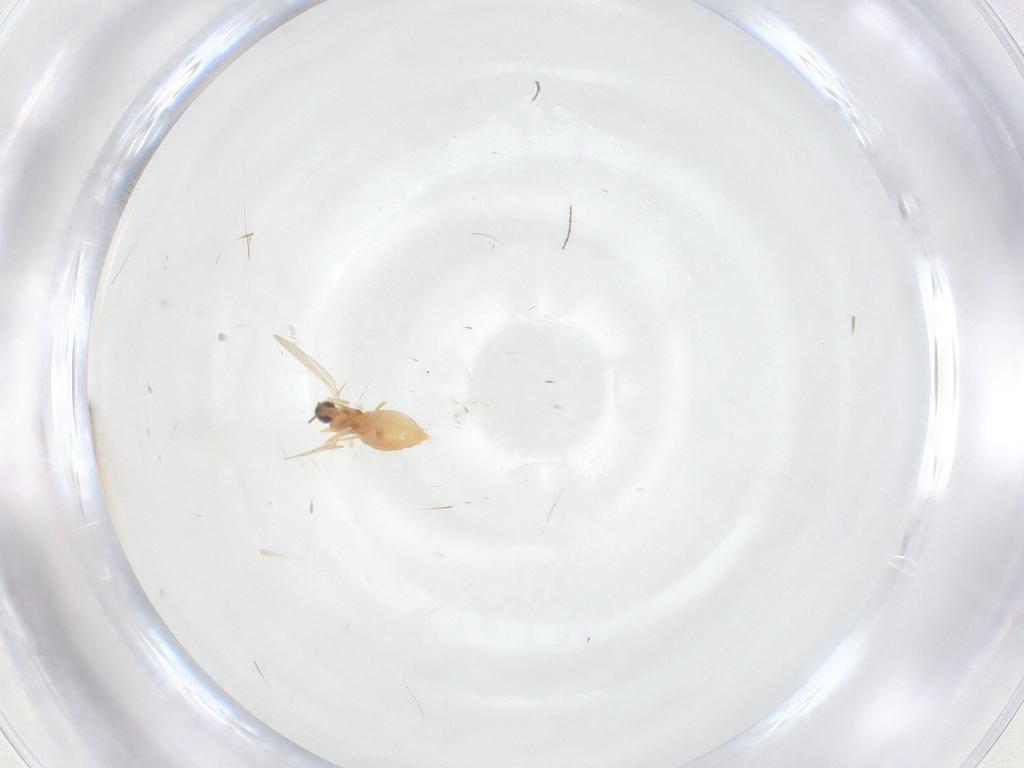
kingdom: Animalia
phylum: Arthropoda
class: Insecta
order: Diptera
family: Cecidomyiidae
